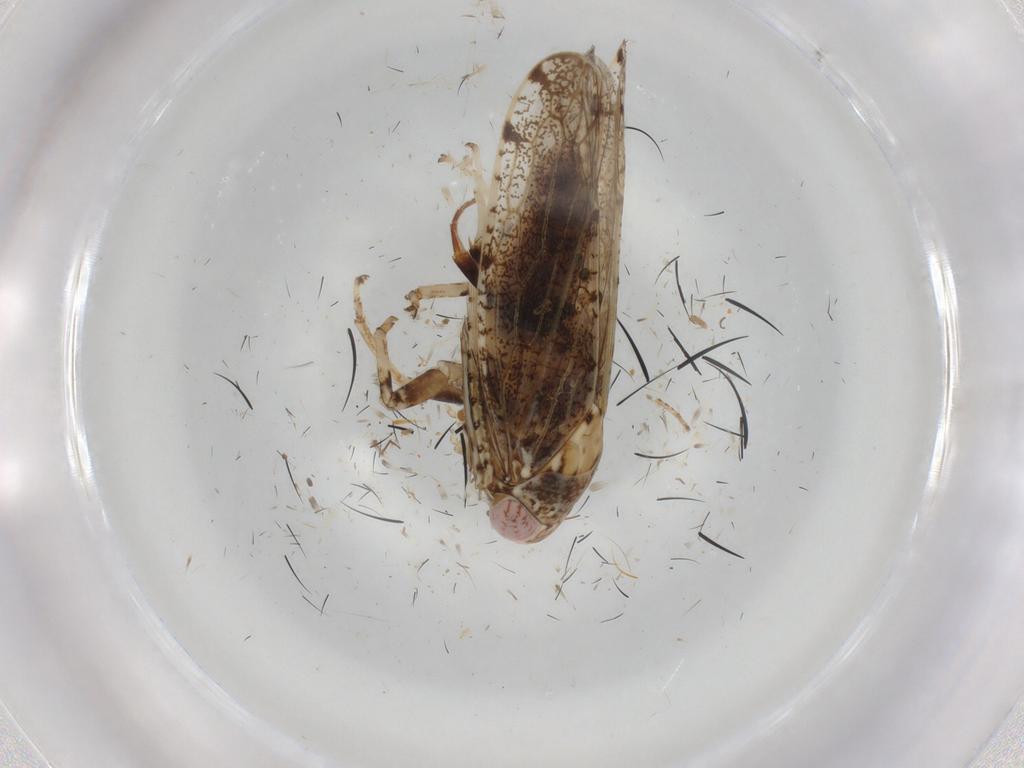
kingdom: Animalia
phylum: Arthropoda
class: Insecta
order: Hemiptera
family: Cicadellidae
